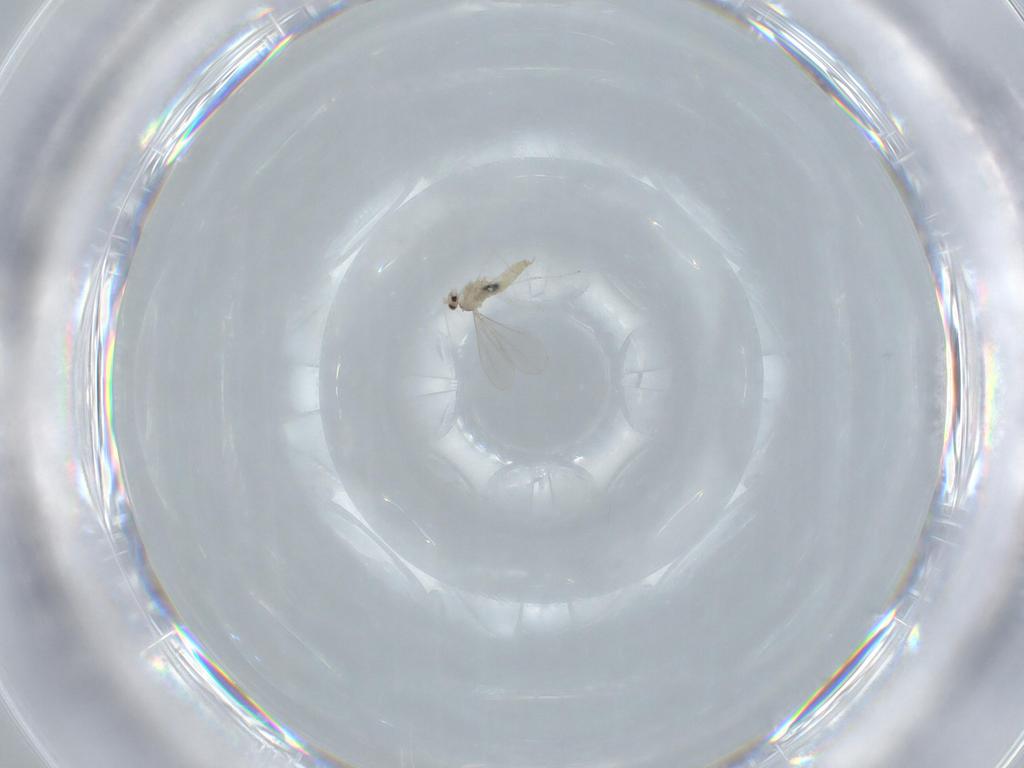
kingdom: Animalia
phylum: Arthropoda
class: Insecta
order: Diptera
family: Cecidomyiidae
